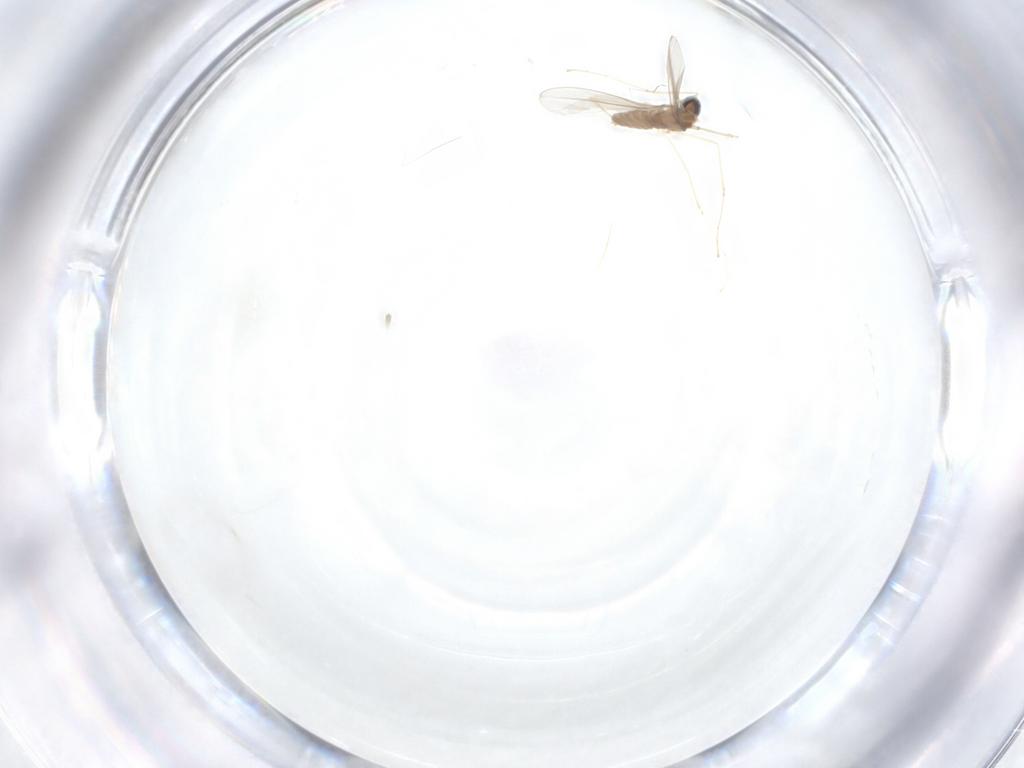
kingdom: Animalia
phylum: Arthropoda
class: Insecta
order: Diptera
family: Cecidomyiidae
